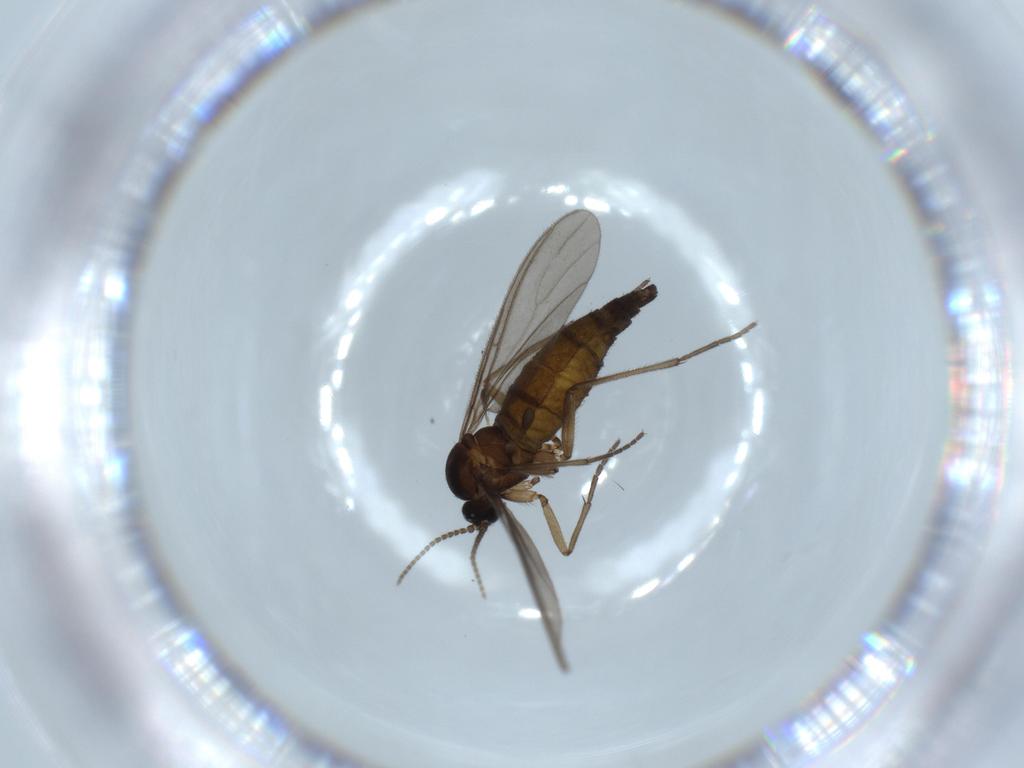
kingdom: Animalia
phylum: Arthropoda
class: Insecta
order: Diptera
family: Sciaridae
